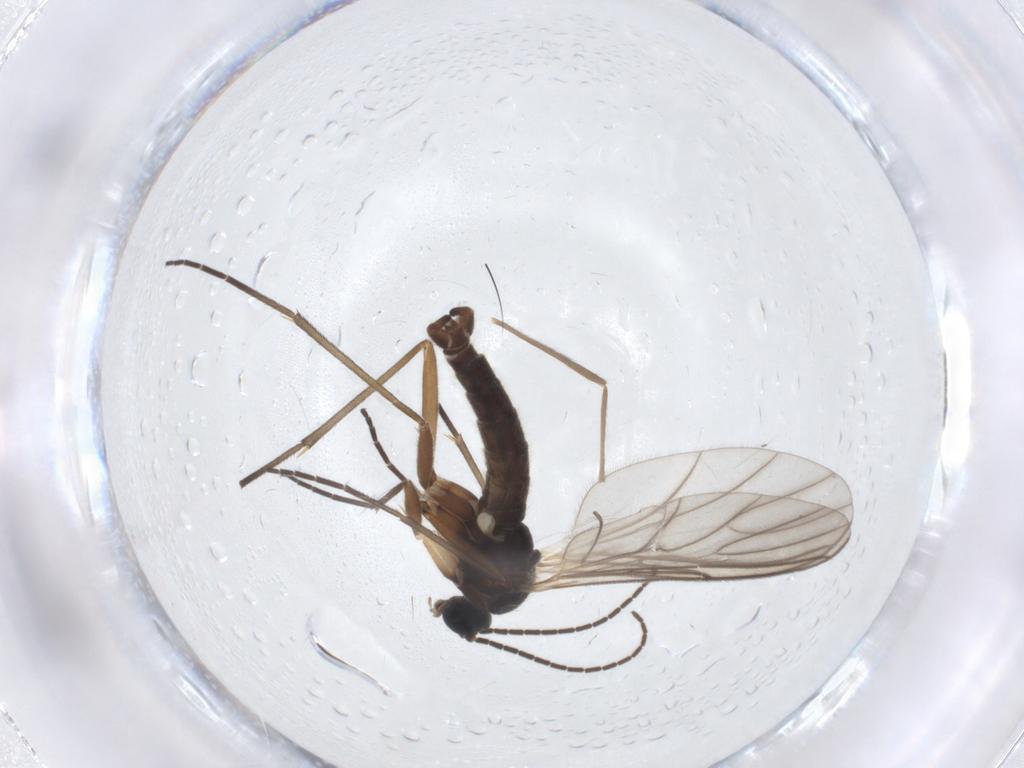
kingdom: Animalia
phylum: Arthropoda
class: Insecta
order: Diptera
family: Sciaridae
